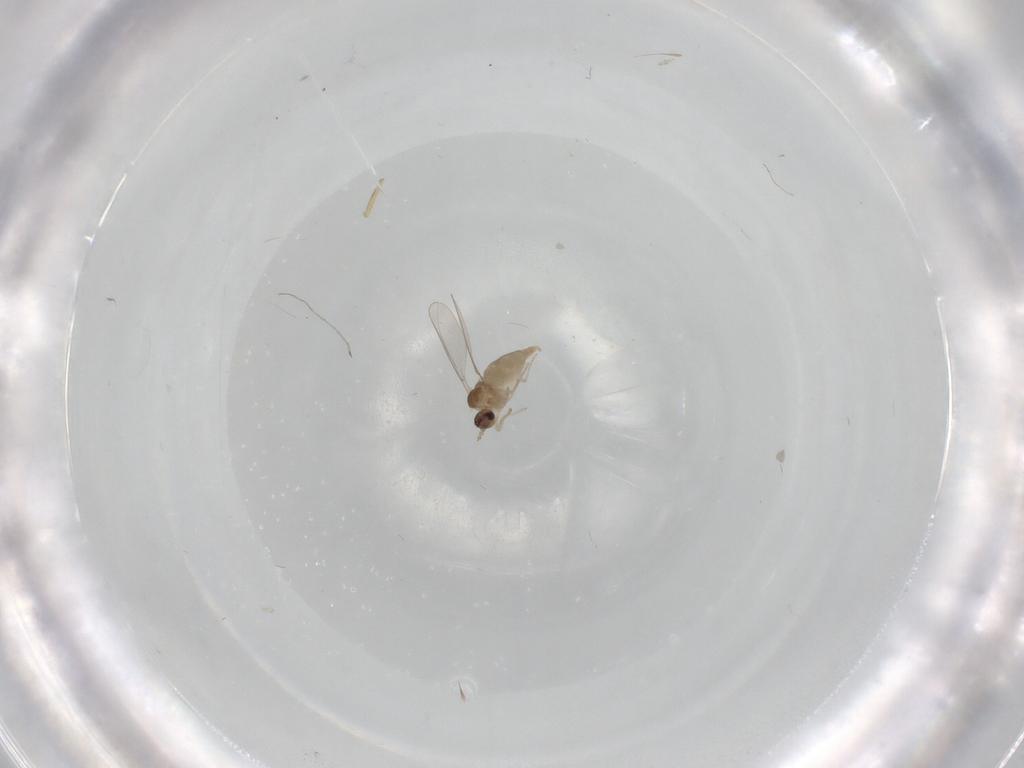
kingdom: Animalia
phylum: Arthropoda
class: Insecta
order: Diptera
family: Cecidomyiidae
